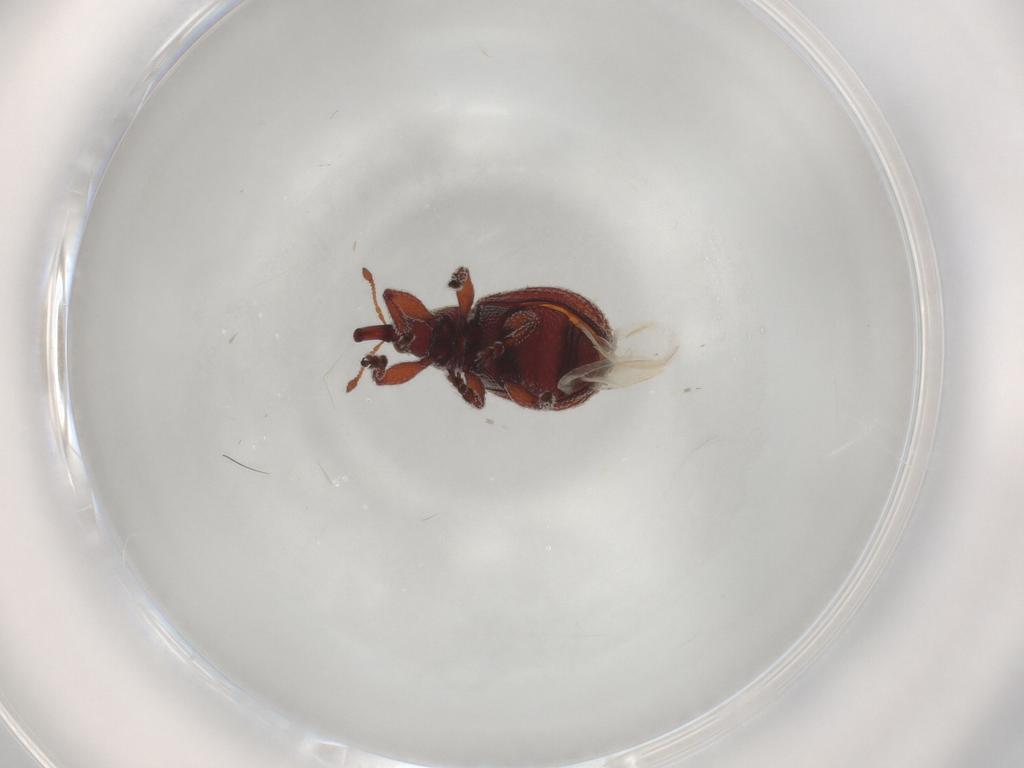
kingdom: Animalia
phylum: Arthropoda
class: Insecta
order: Coleoptera
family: Brentidae
